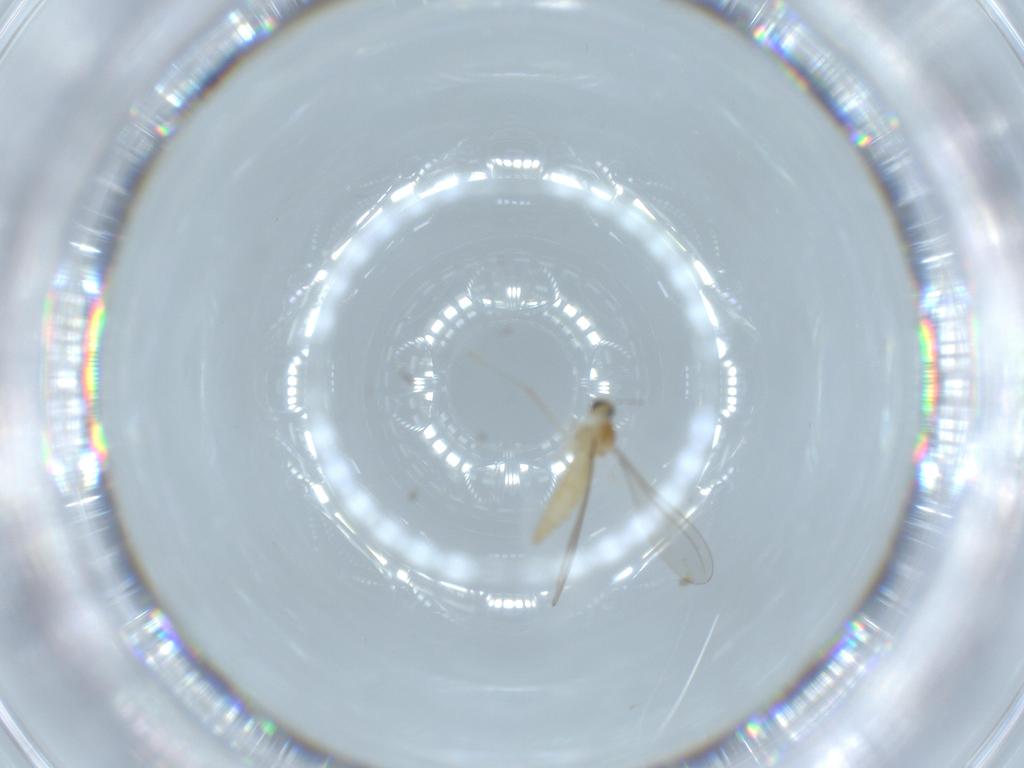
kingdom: Animalia
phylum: Arthropoda
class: Insecta
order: Diptera
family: Cecidomyiidae
